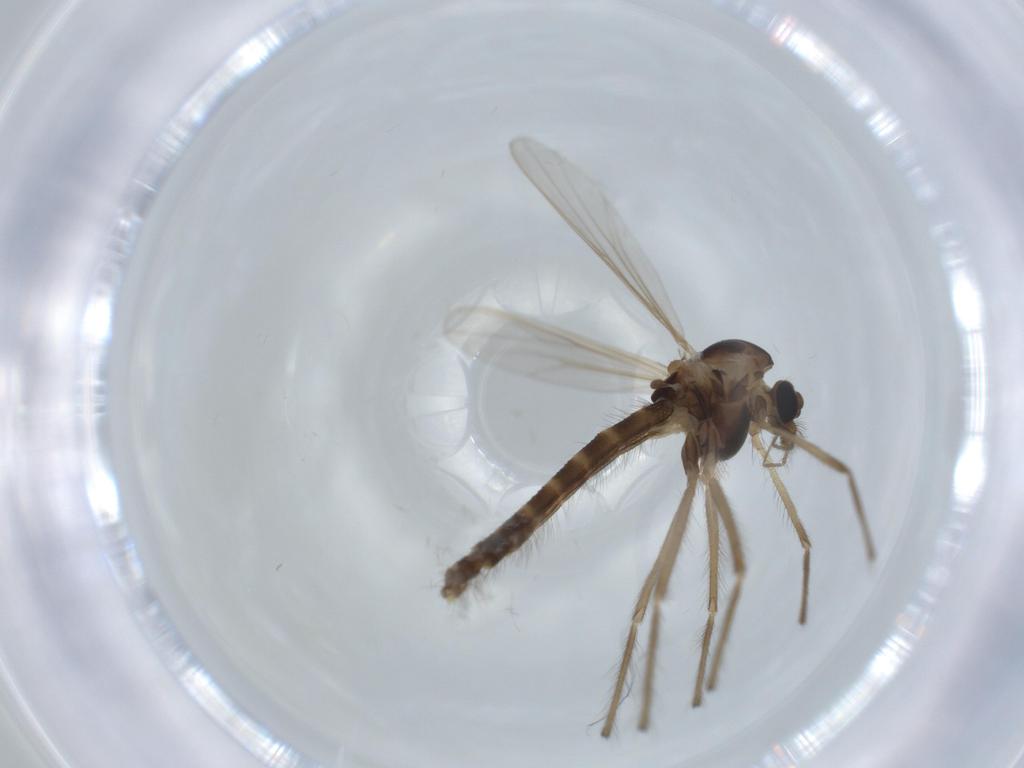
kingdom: Animalia
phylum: Arthropoda
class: Insecta
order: Diptera
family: Chironomidae
